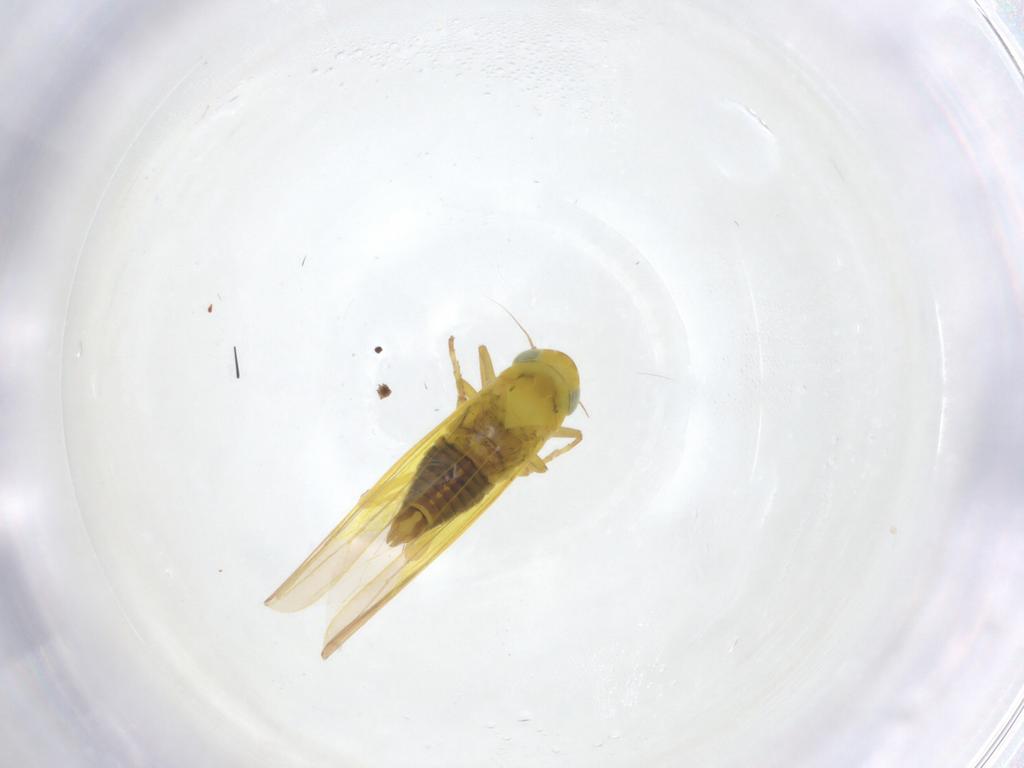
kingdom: Animalia
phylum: Arthropoda
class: Insecta
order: Hemiptera
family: Cicadellidae
